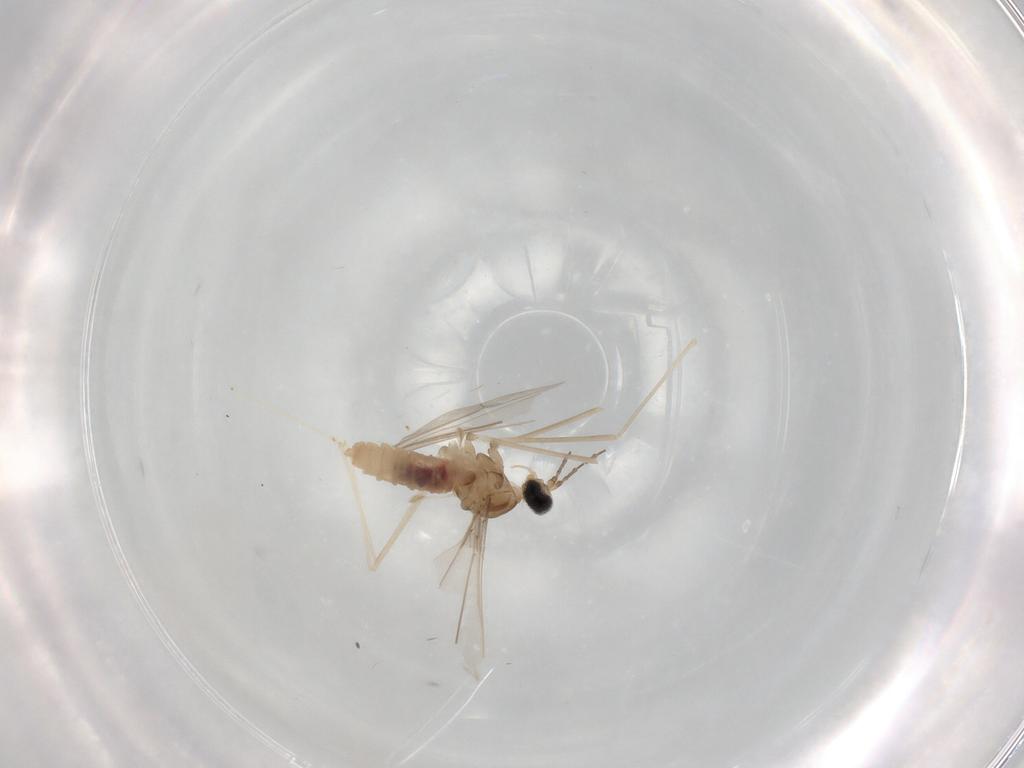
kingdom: Animalia
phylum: Arthropoda
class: Insecta
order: Diptera
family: Cecidomyiidae
